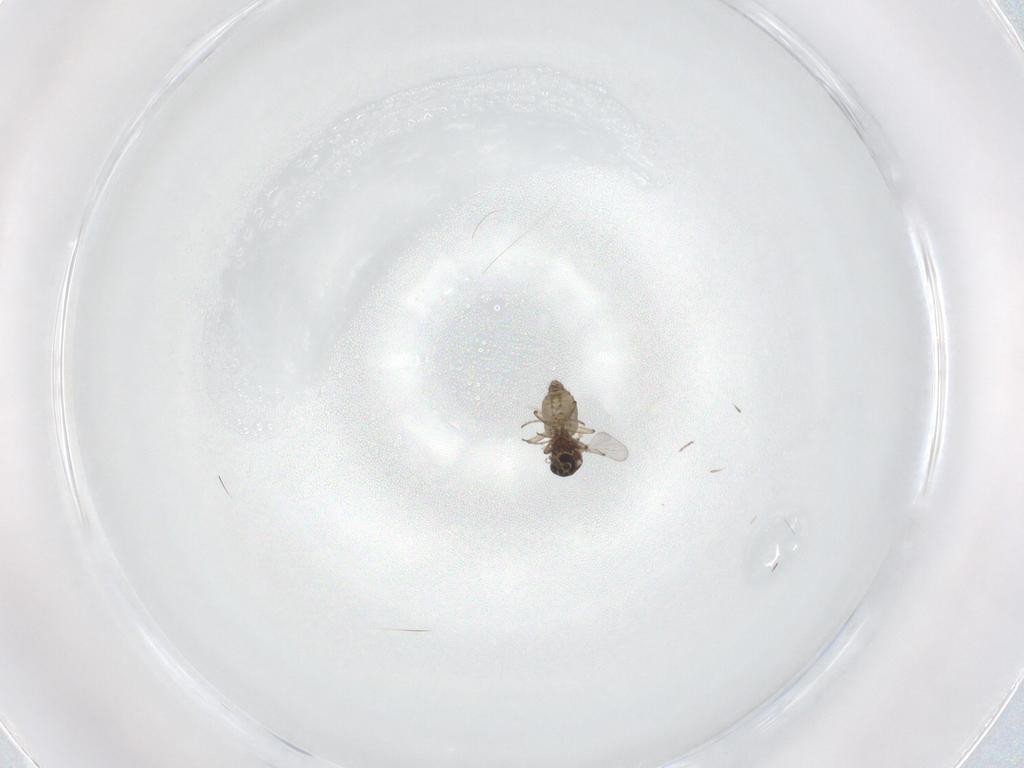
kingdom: Animalia
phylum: Arthropoda
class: Insecta
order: Diptera
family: Ceratopogonidae
